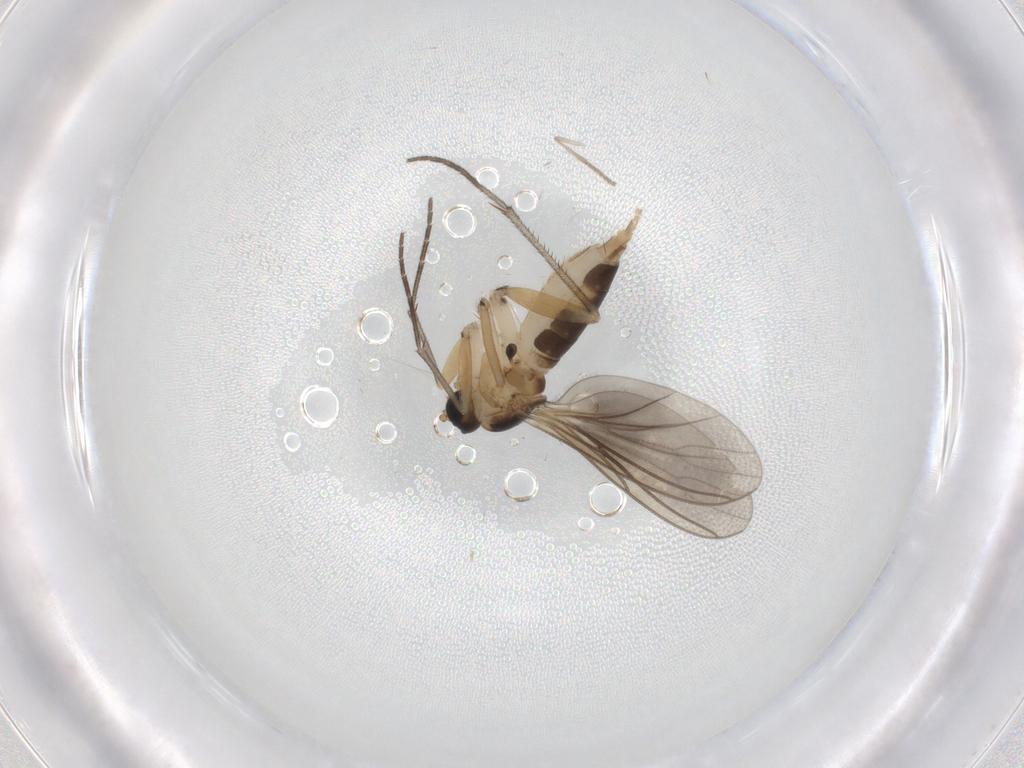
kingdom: Animalia
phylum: Arthropoda
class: Insecta
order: Diptera
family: Sphaeroceridae
